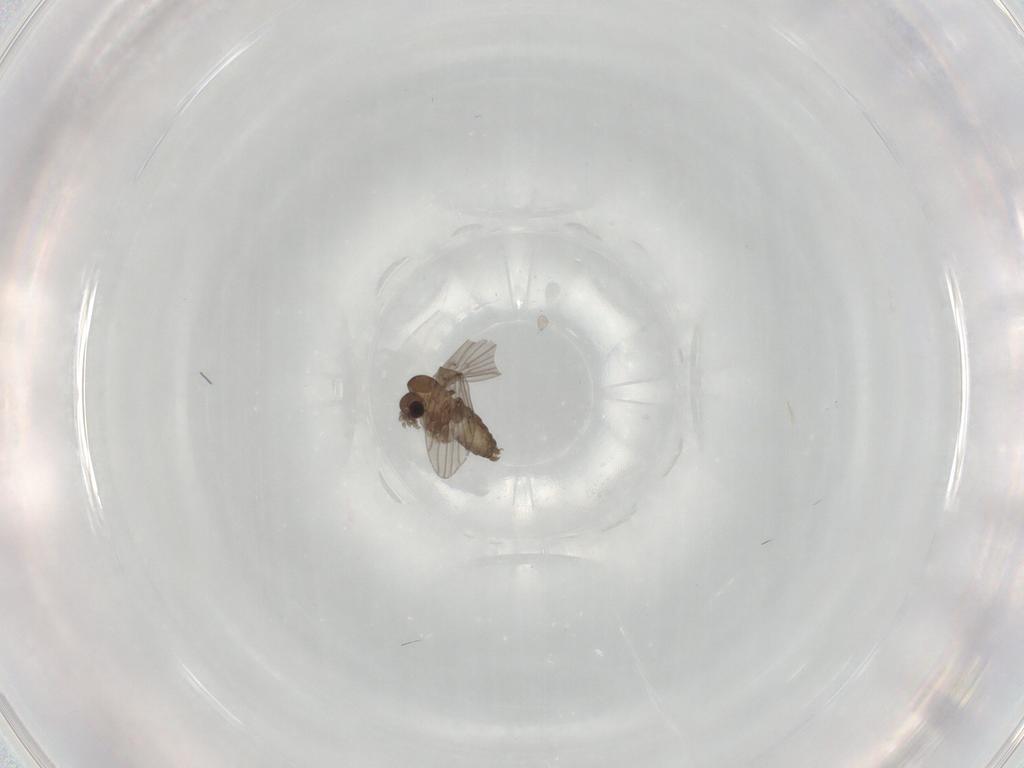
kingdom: Animalia
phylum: Arthropoda
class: Insecta
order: Diptera
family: Psychodidae
